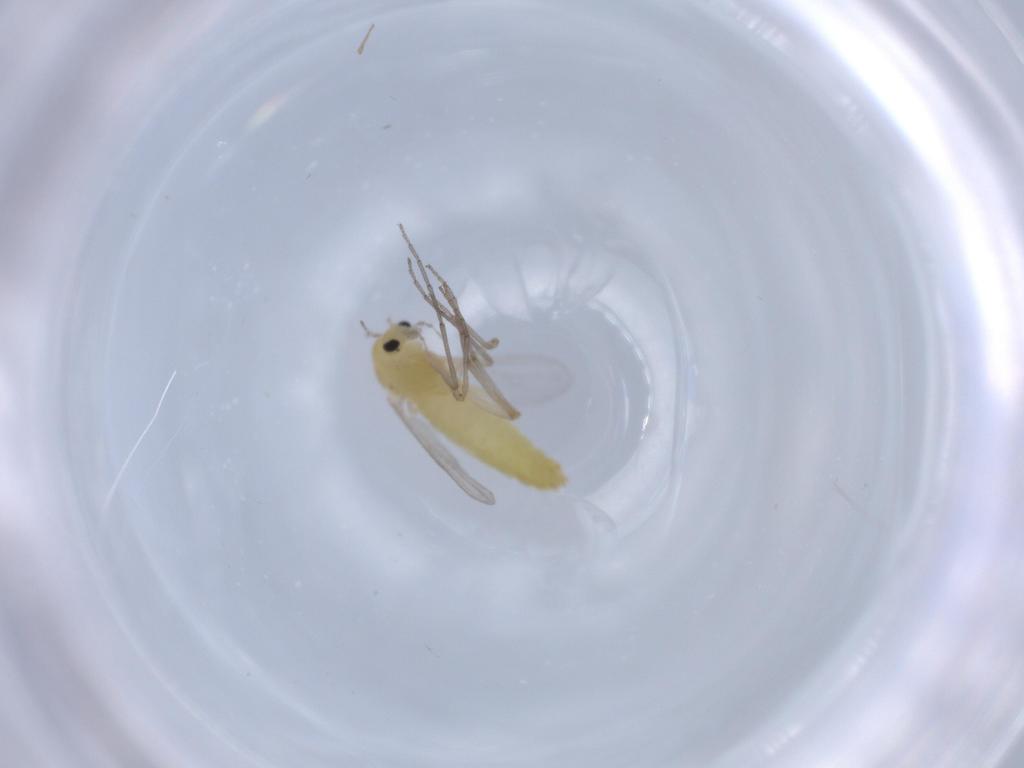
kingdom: Animalia
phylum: Arthropoda
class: Insecta
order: Diptera
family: Chironomidae
